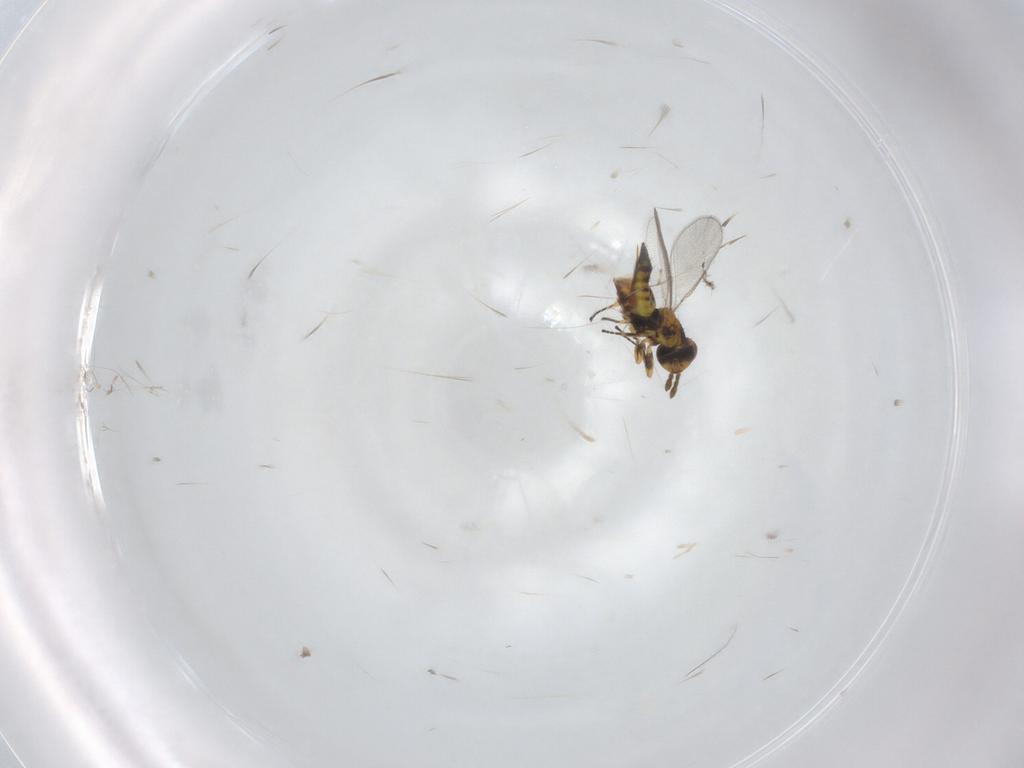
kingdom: Animalia
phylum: Arthropoda
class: Insecta
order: Hymenoptera
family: Eulophidae
